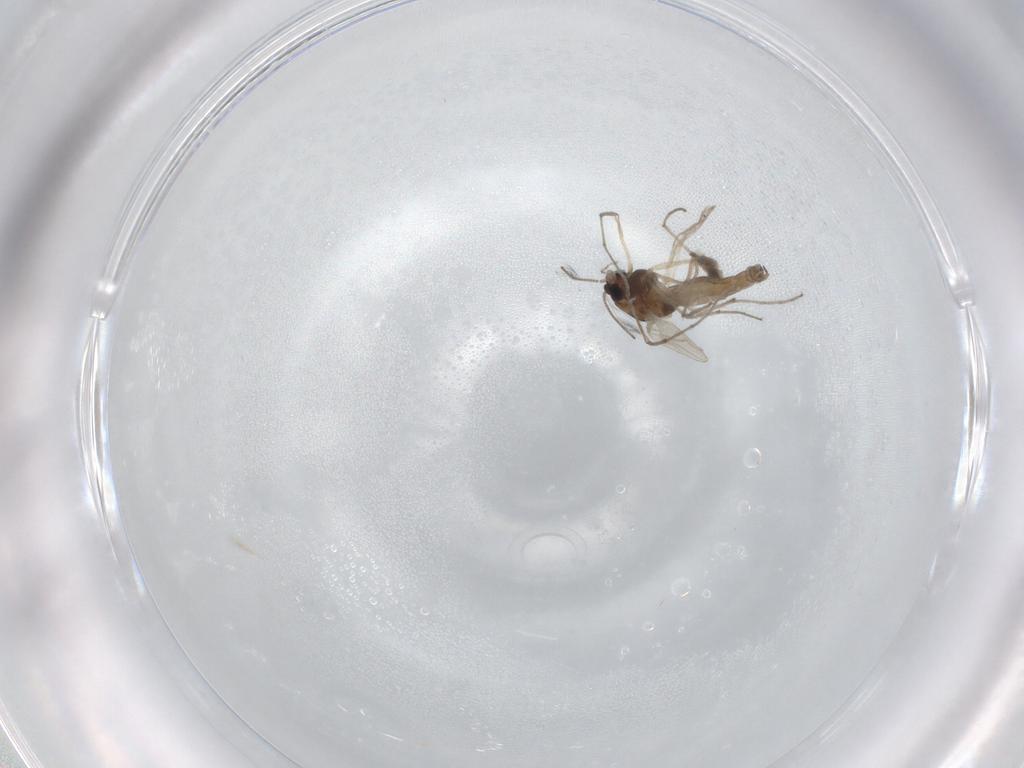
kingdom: Animalia
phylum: Arthropoda
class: Insecta
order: Diptera
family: Chironomidae
